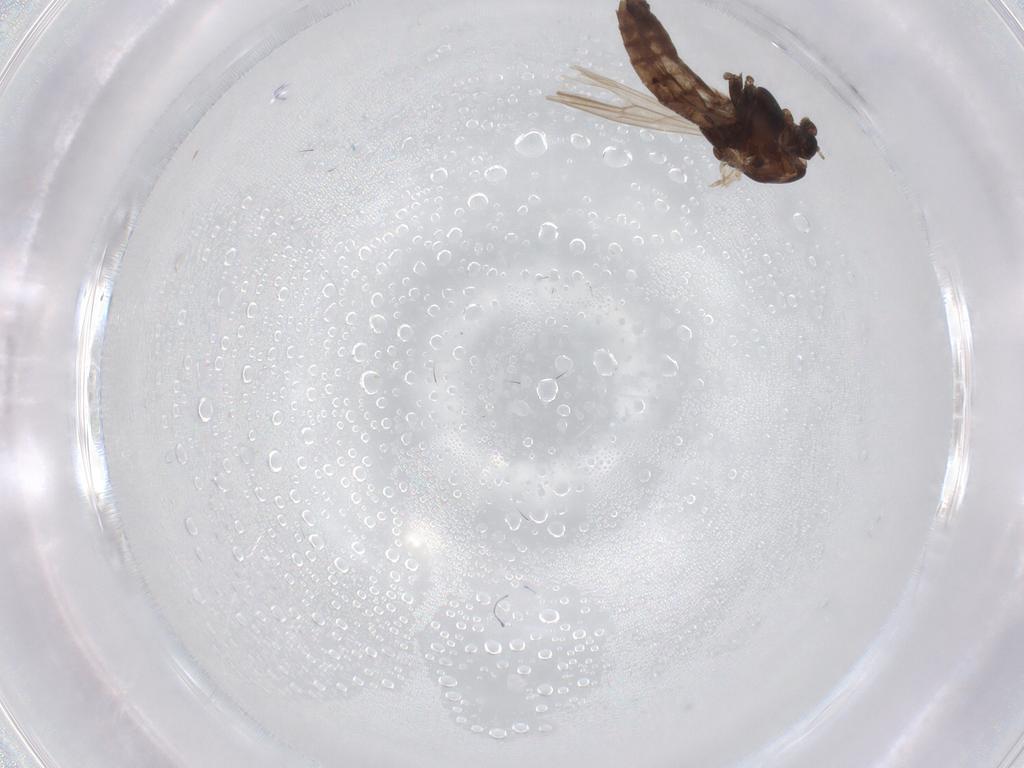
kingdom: Animalia
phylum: Arthropoda
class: Insecta
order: Diptera
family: Chironomidae
